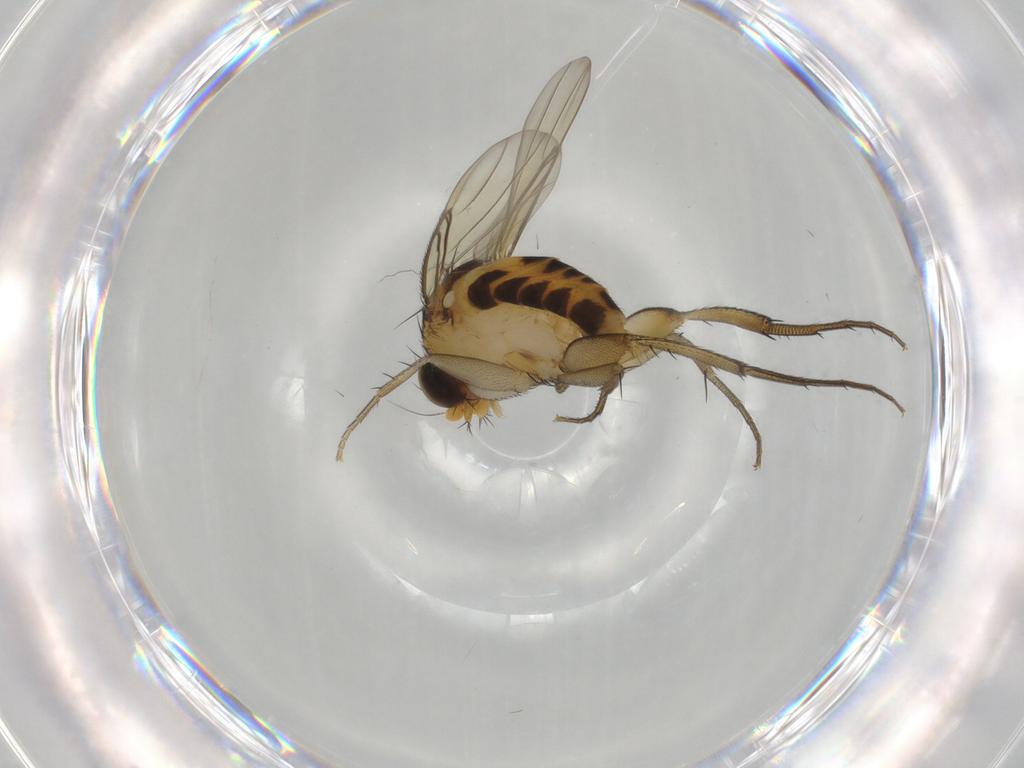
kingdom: Animalia
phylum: Arthropoda
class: Insecta
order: Diptera
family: Phoridae
